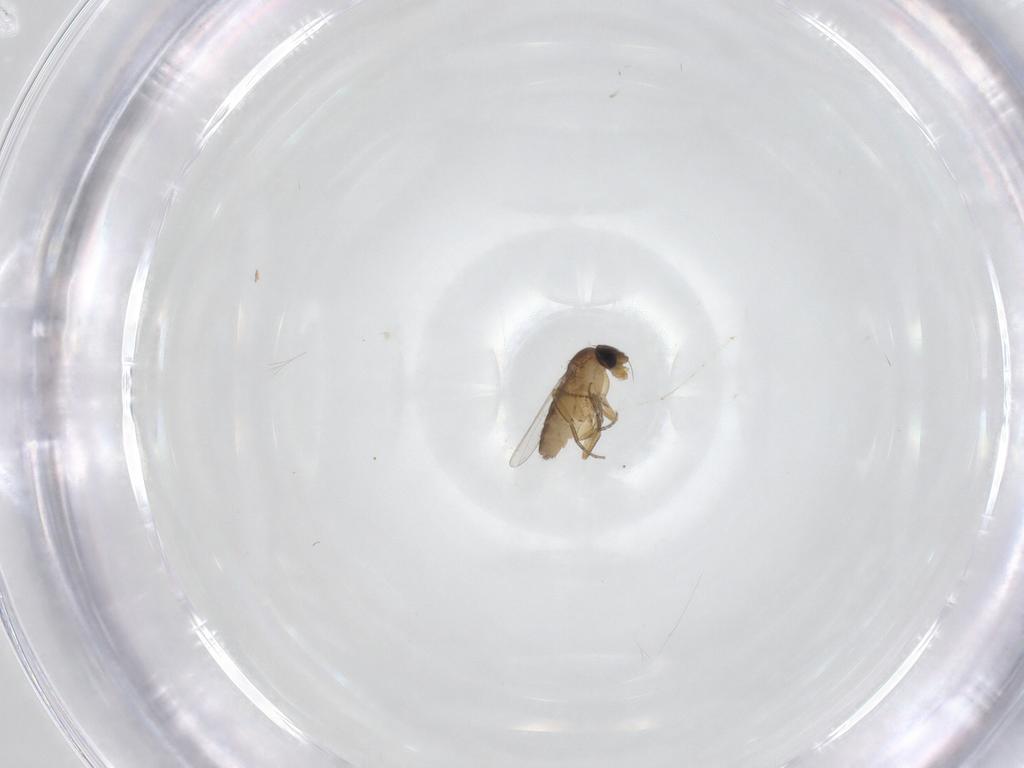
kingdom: Animalia
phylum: Arthropoda
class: Insecta
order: Diptera
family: Ceratopogonidae
